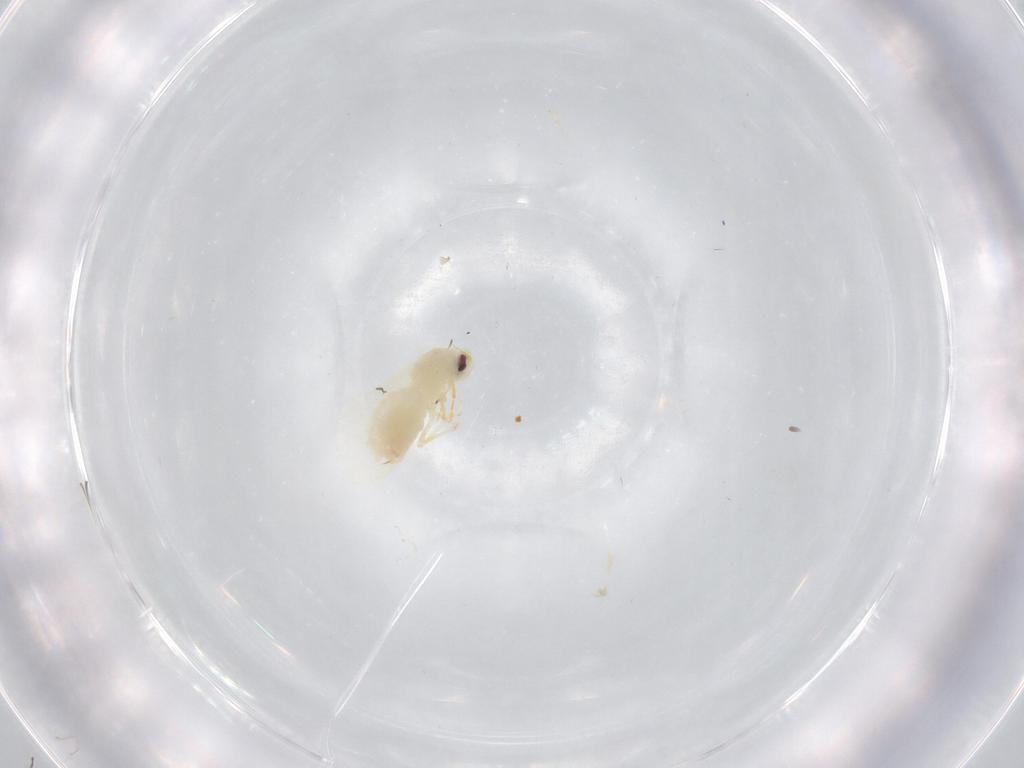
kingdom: Animalia
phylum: Arthropoda
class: Insecta
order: Hemiptera
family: Aleyrodidae
